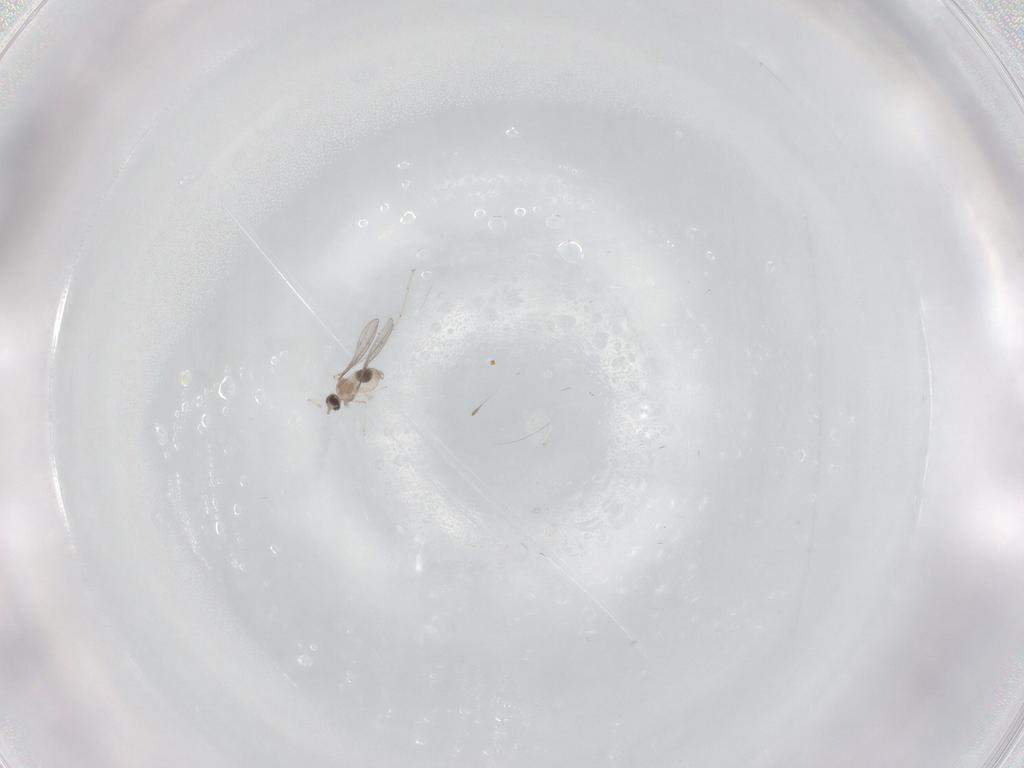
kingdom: Animalia
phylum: Arthropoda
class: Insecta
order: Diptera
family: Cecidomyiidae
